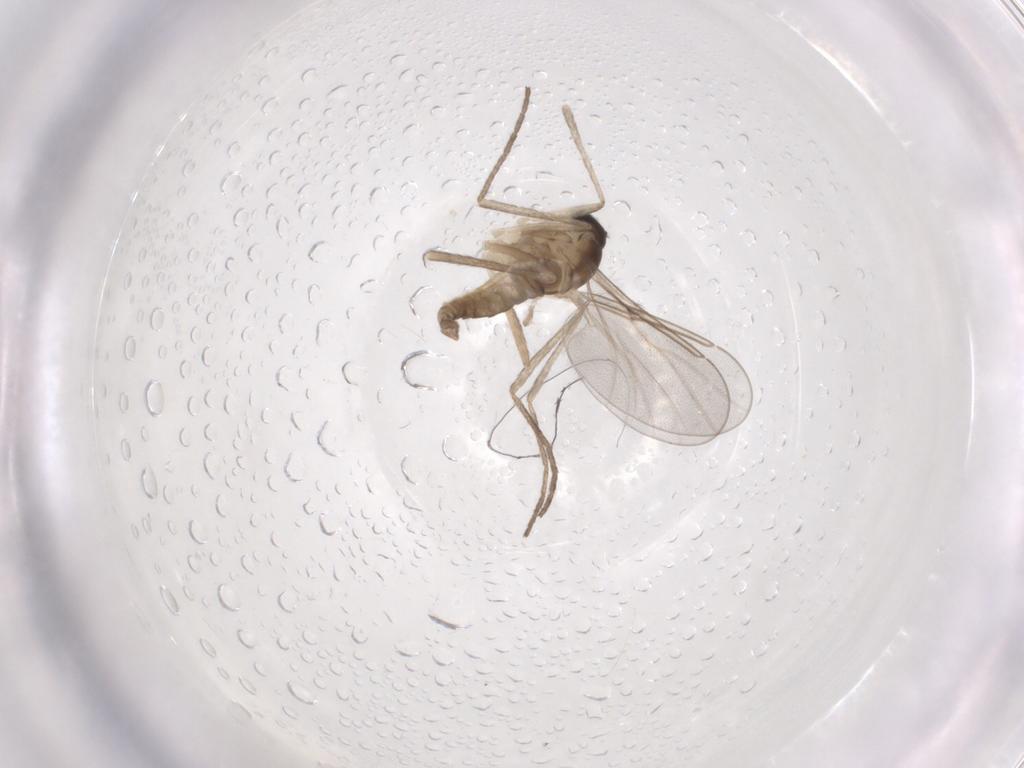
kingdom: Animalia
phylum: Arthropoda
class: Insecta
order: Diptera
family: Cecidomyiidae
